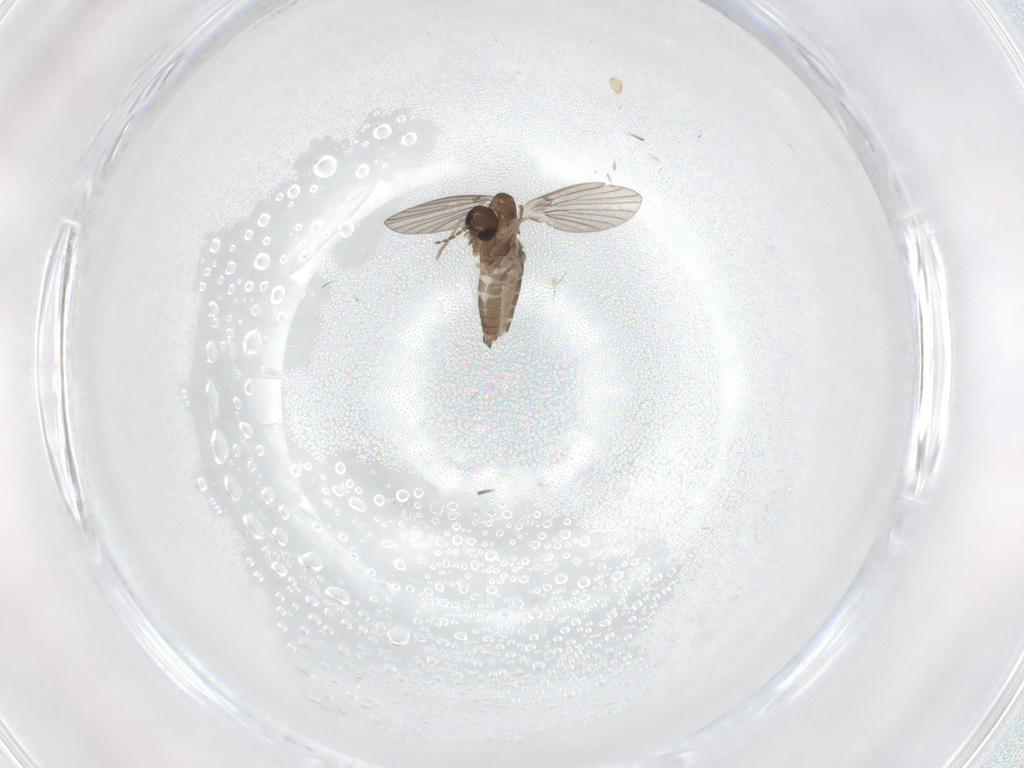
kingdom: Animalia
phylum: Arthropoda
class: Insecta
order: Diptera
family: Clusiidae
